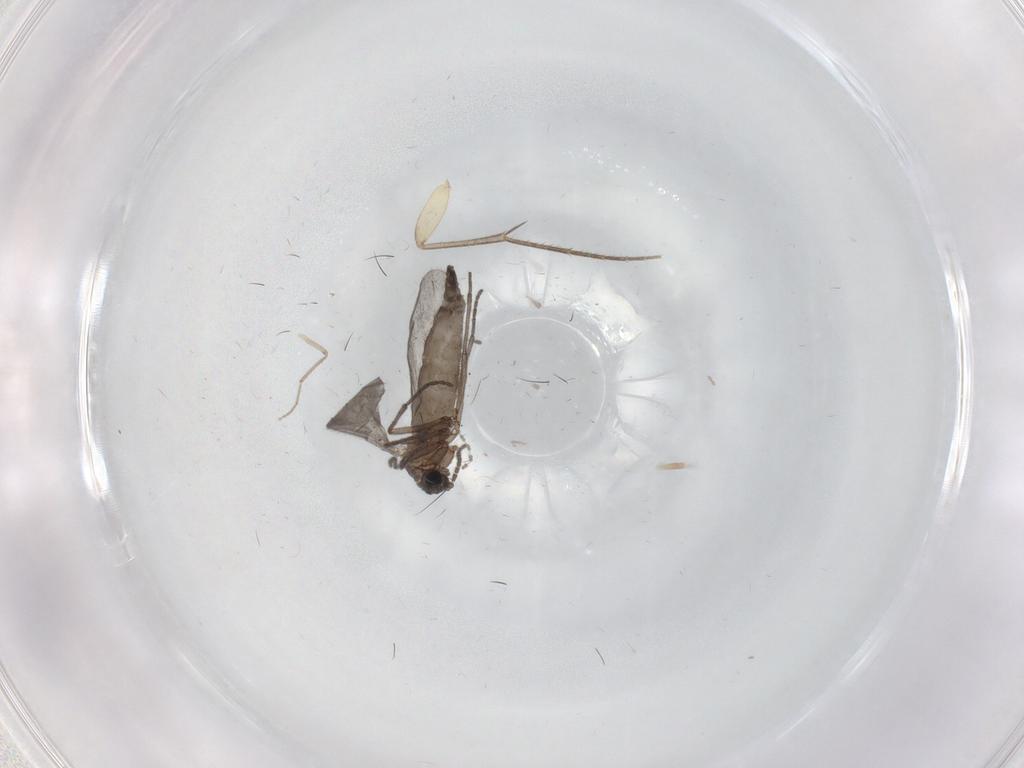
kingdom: Animalia
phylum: Arthropoda
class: Insecta
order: Diptera
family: Sciaridae
